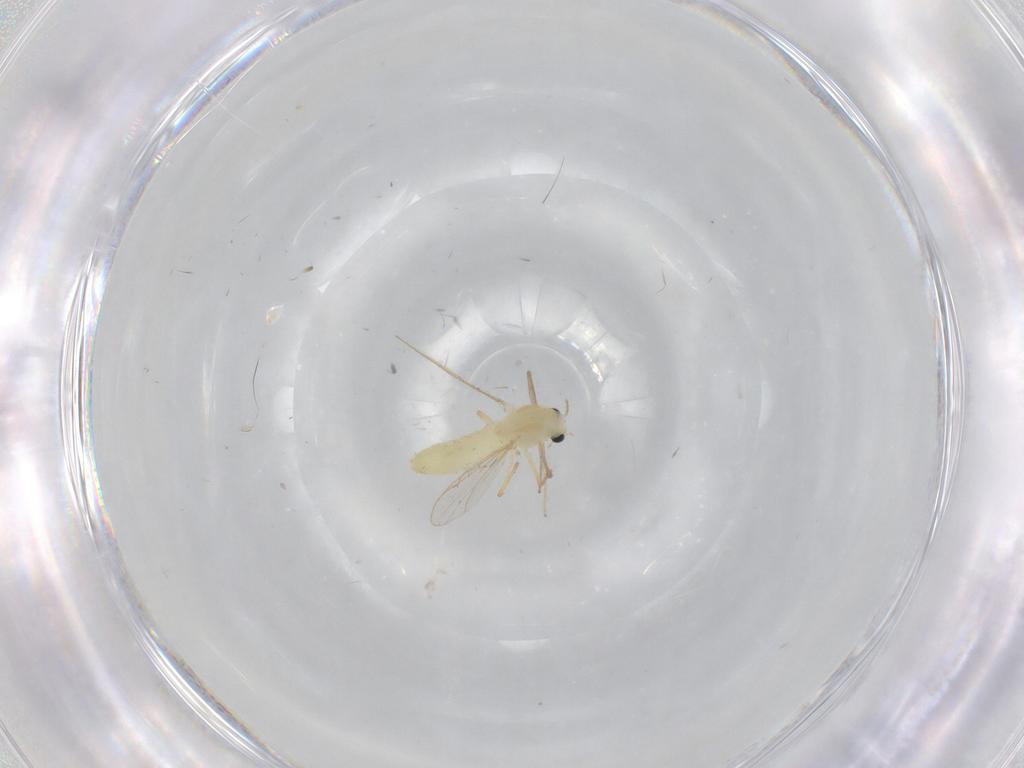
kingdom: Animalia
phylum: Arthropoda
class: Insecta
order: Diptera
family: Chironomidae
